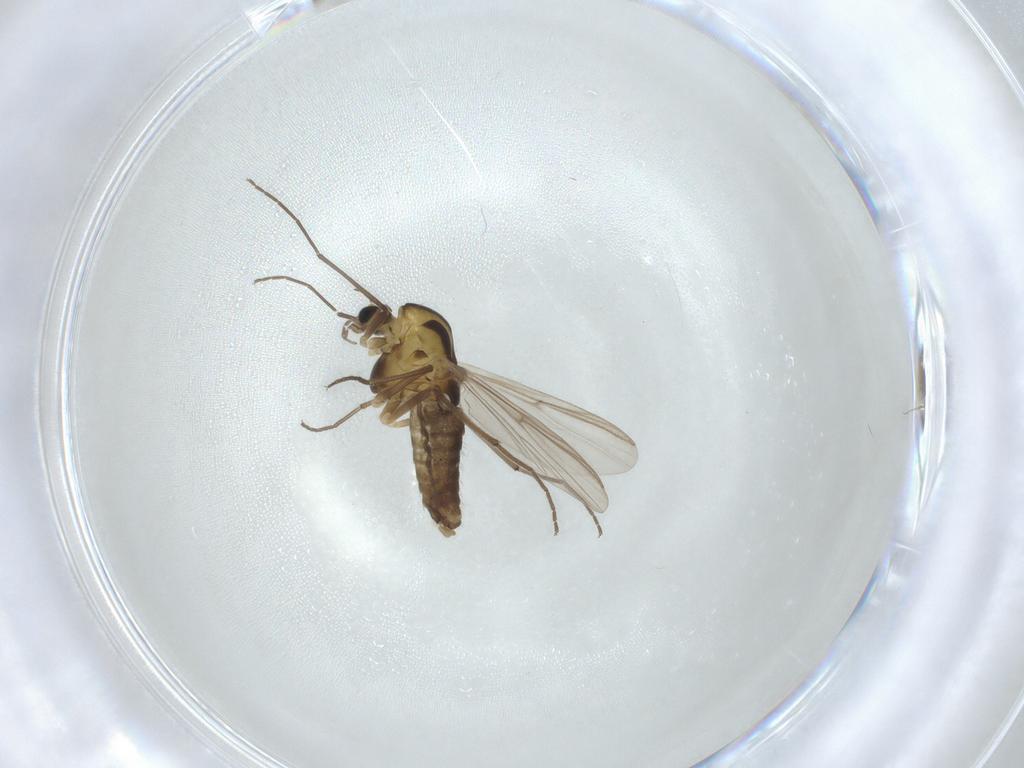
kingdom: Animalia
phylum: Arthropoda
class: Insecta
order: Diptera
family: Chironomidae
